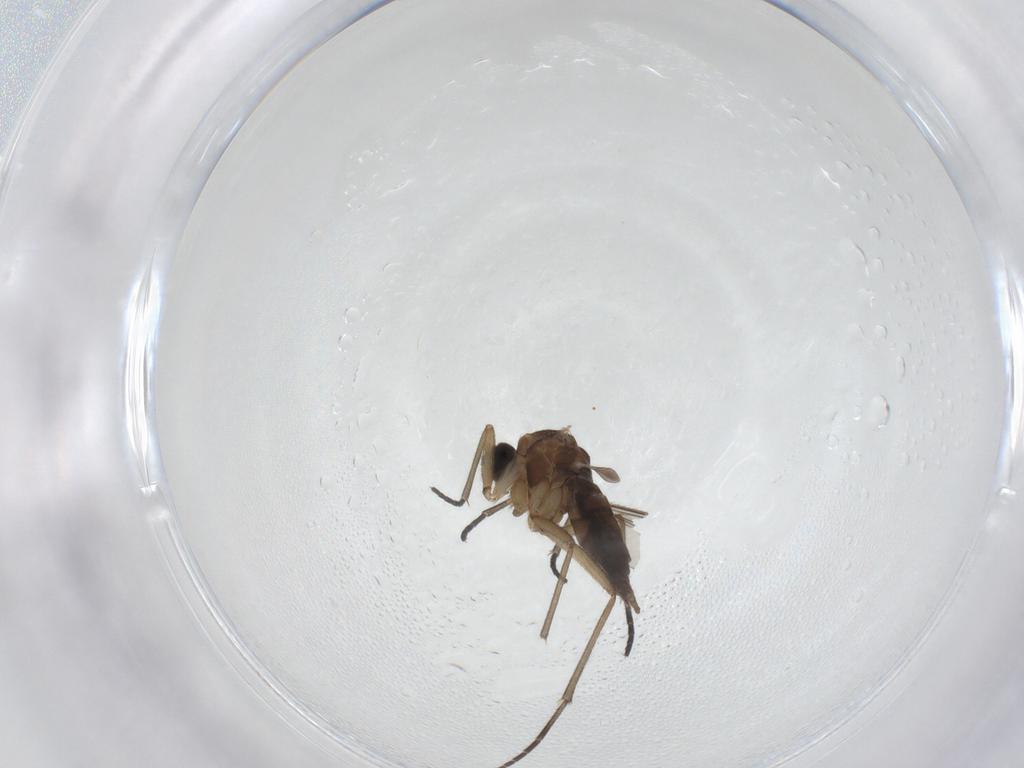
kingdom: Animalia
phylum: Arthropoda
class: Insecta
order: Diptera
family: Sciaridae
